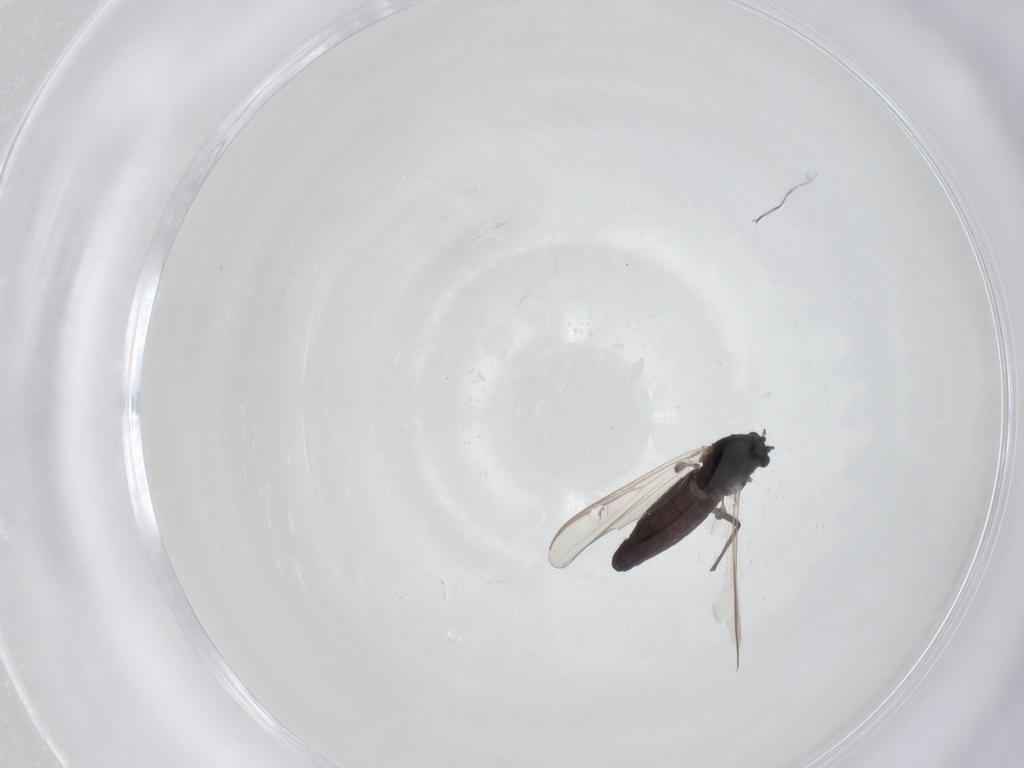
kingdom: Animalia
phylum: Arthropoda
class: Insecta
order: Diptera
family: Chironomidae
